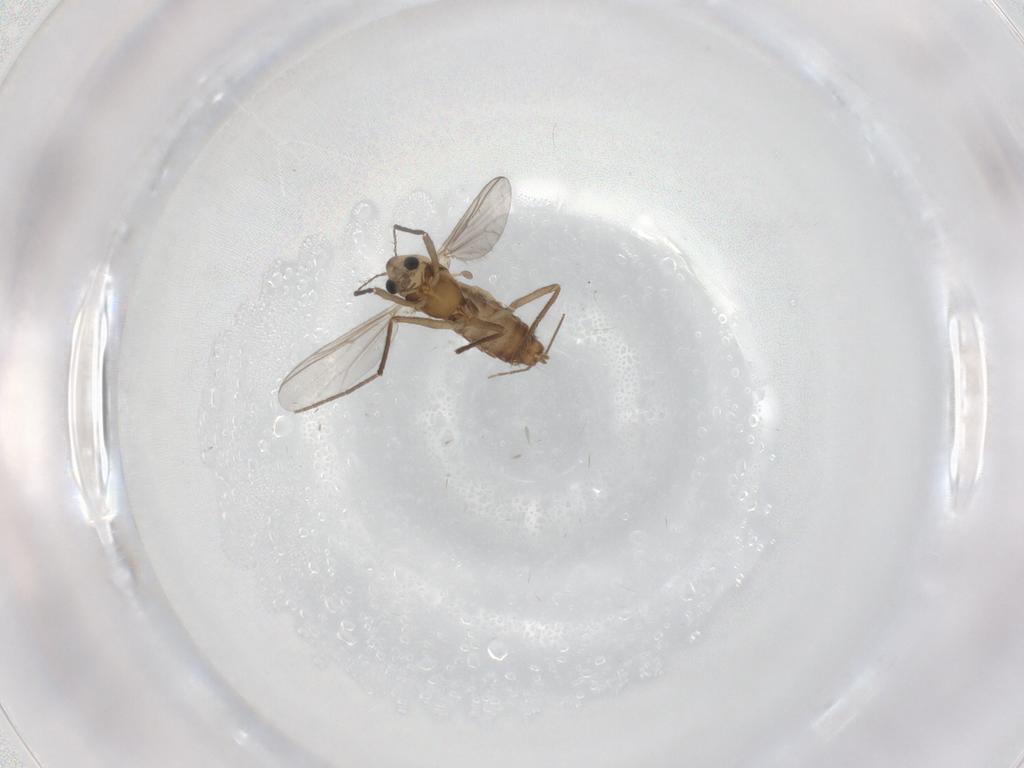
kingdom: Animalia
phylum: Arthropoda
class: Insecta
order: Diptera
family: Chironomidae
